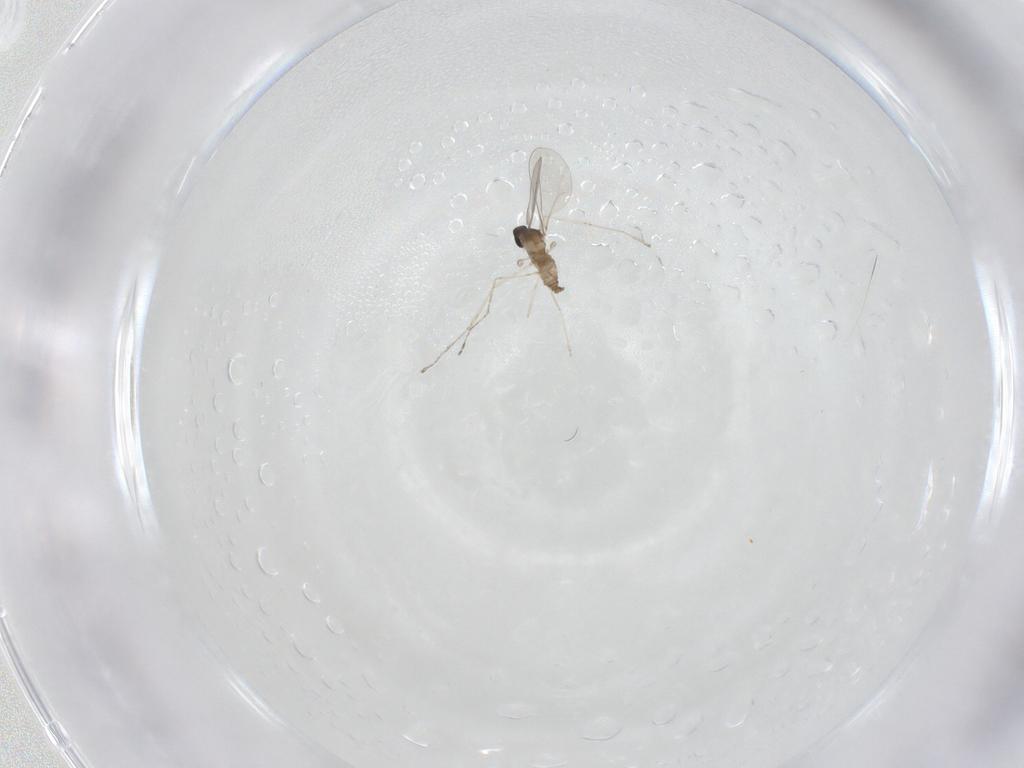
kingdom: Animalia
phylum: Arthropoda
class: Insecta
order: Diptera
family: Cecidomyiidae
